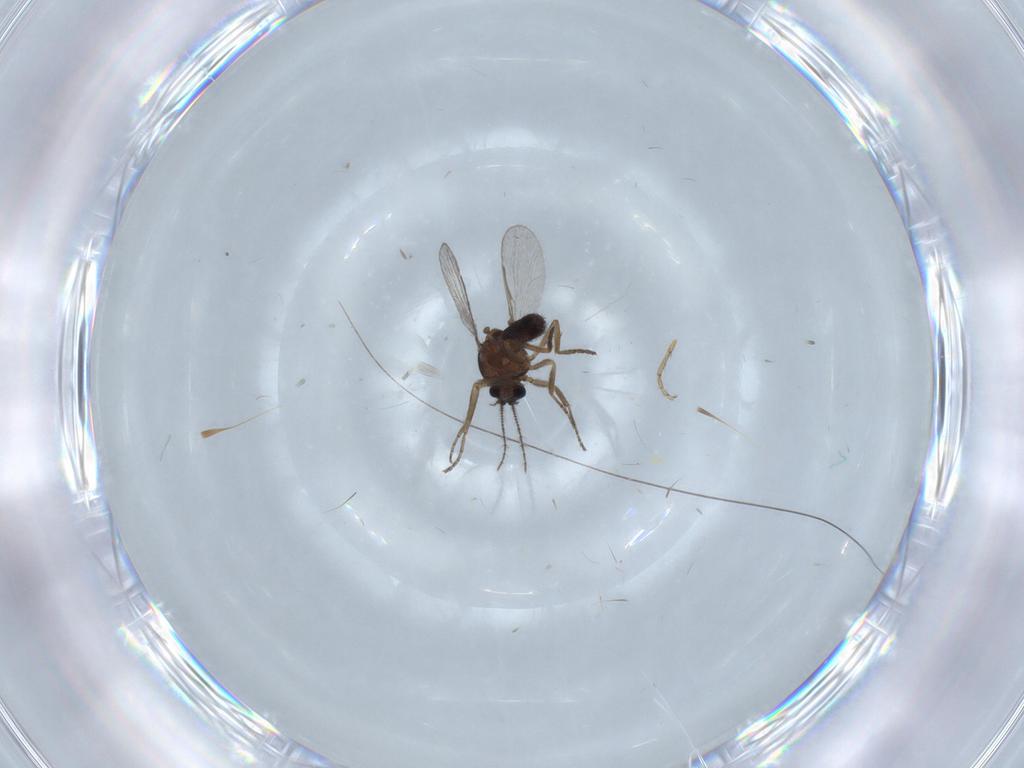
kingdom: Animalia
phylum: Arthropoda
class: Insecta
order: Diptera
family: Ceratopogonidae
